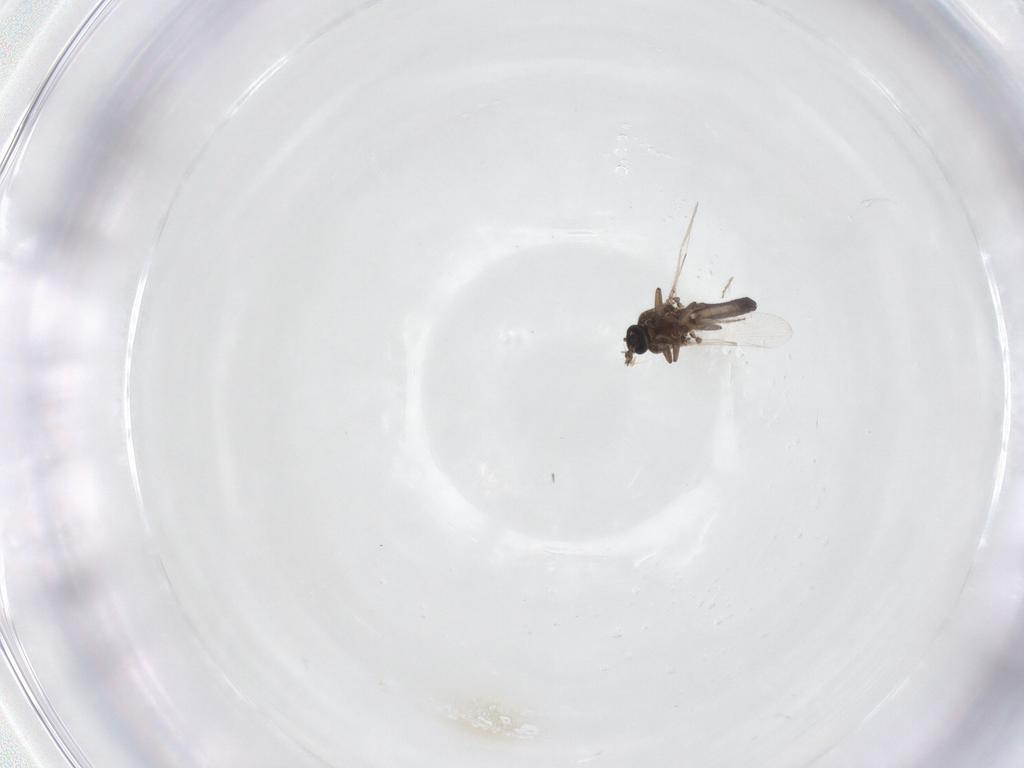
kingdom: Animalia
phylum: Arthropoda
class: Insecta
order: Diptera
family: Ceratopogonidae
